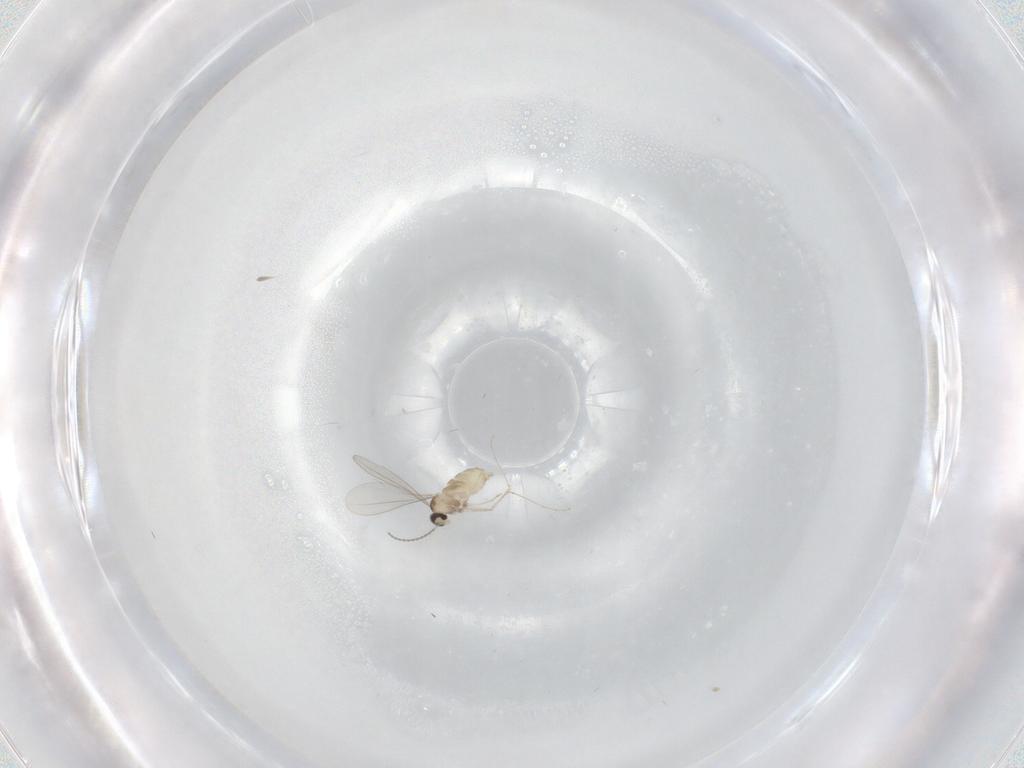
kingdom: Animalia
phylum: Arthropoda
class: Insecta
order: Diptera
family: Cecidomyiidae
